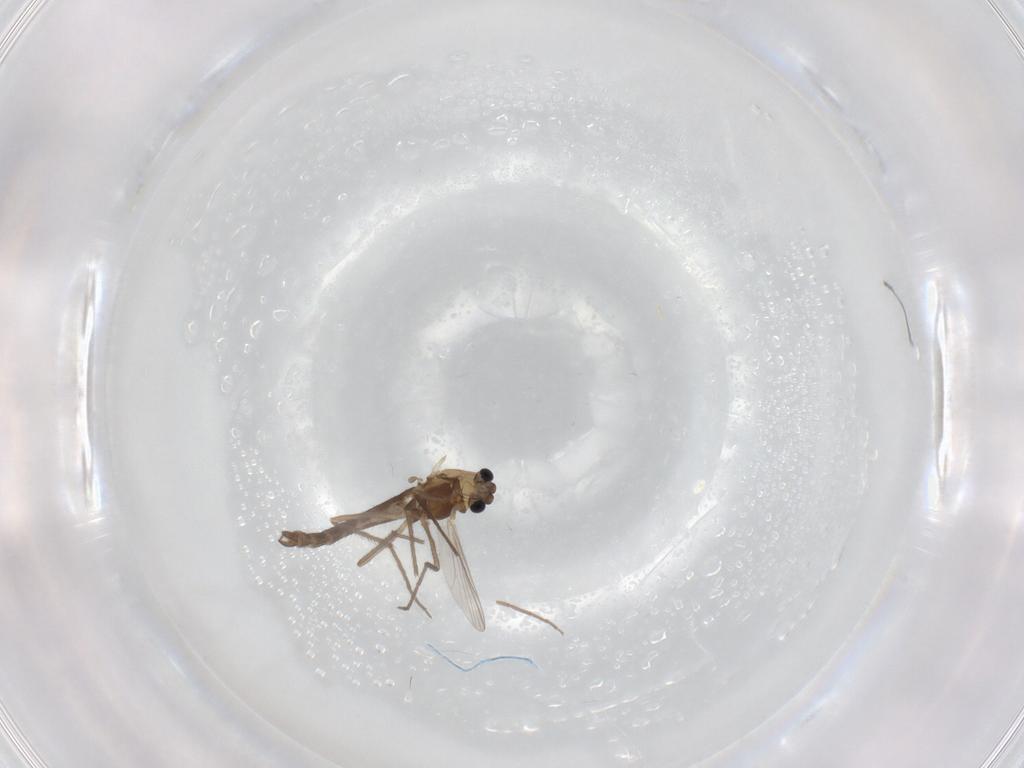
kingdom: Animalia
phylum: Arthropoda
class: Insecta
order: Diptera
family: Chironomidae
